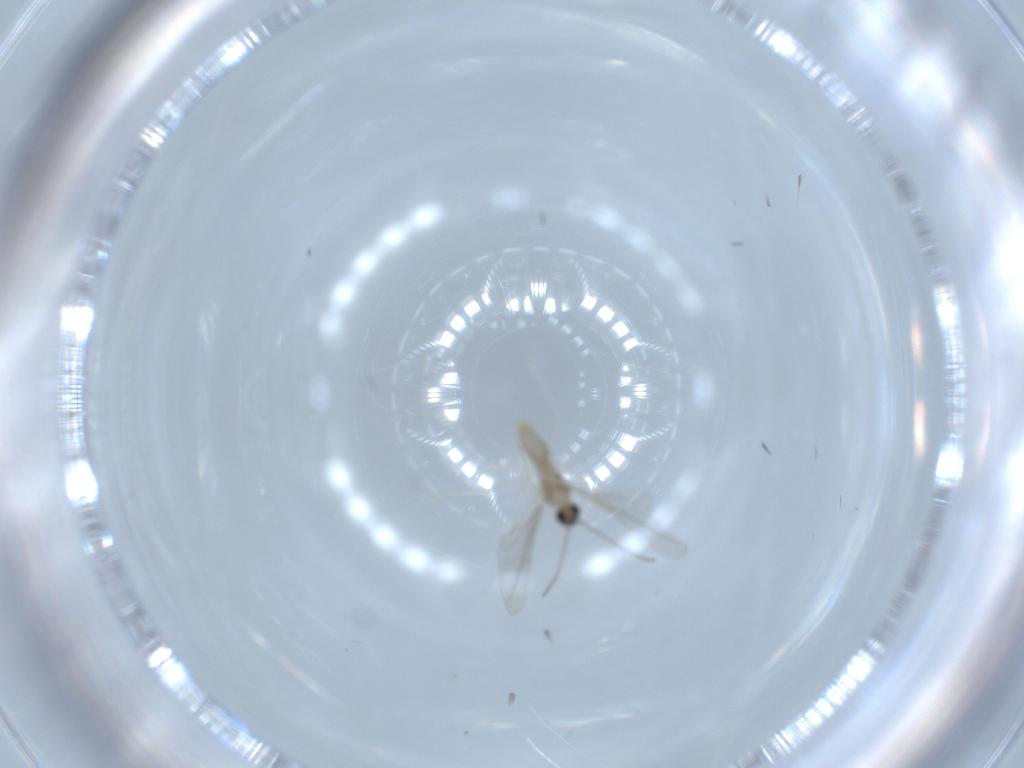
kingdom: Animalia
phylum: Arthropoda
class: Insecta
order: Diptera
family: Cecidomyiidae
